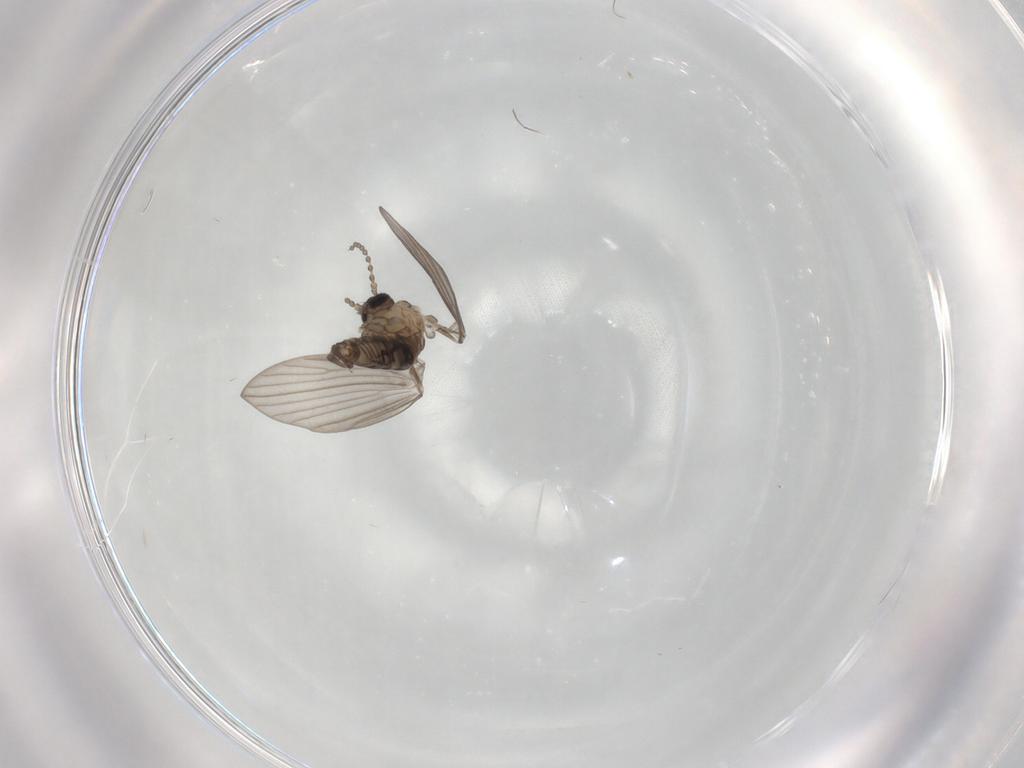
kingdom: Animalia
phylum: Arthropoda
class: Insecta
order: Diptera
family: Psychodidae
